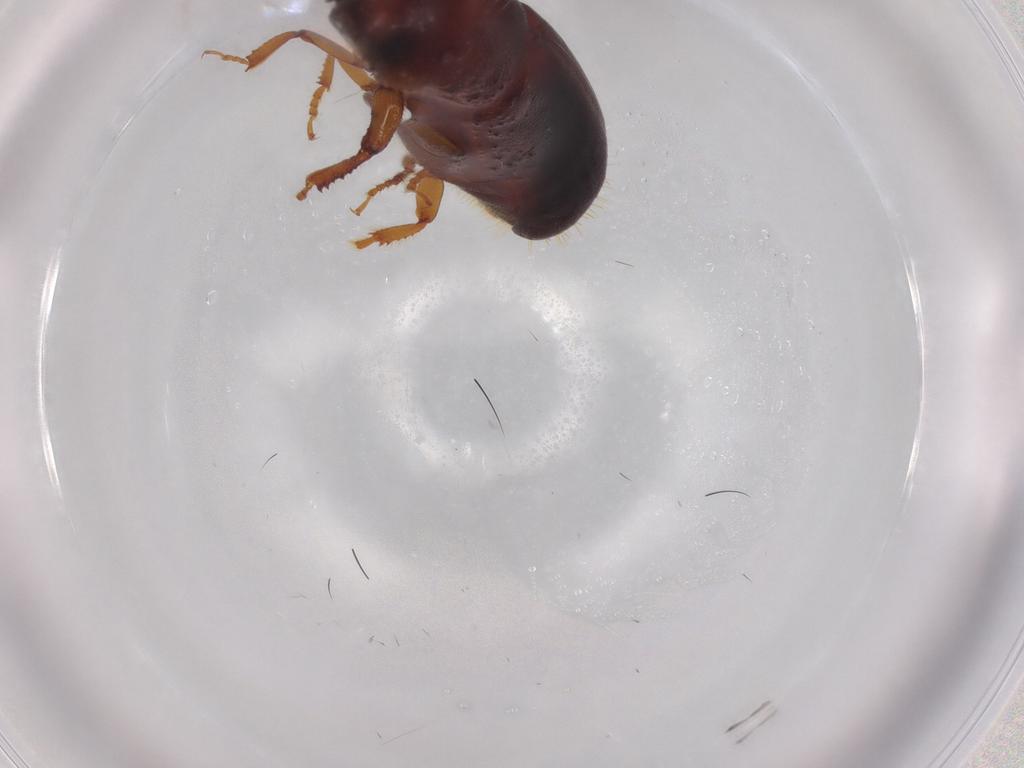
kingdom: Animalia
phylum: Arthropoda
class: Insecta
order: Coleoptera
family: Curculionidae
